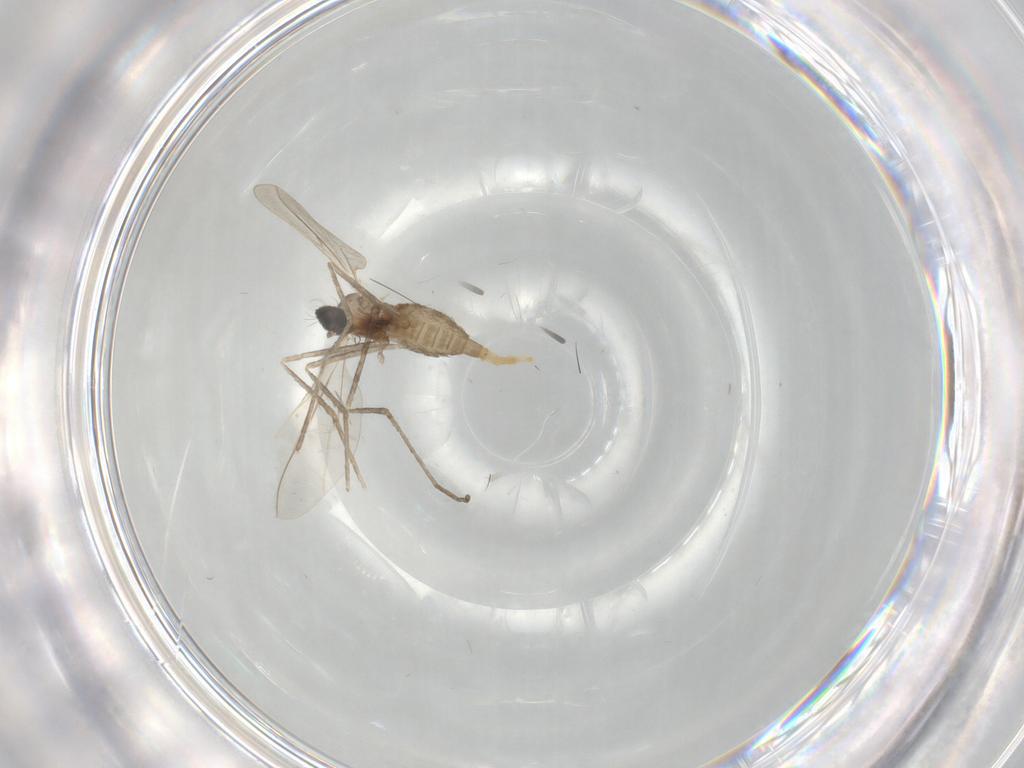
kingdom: Animalia
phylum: Arthropoda
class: Insecta
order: Diptera
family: Cecidomyiidae
